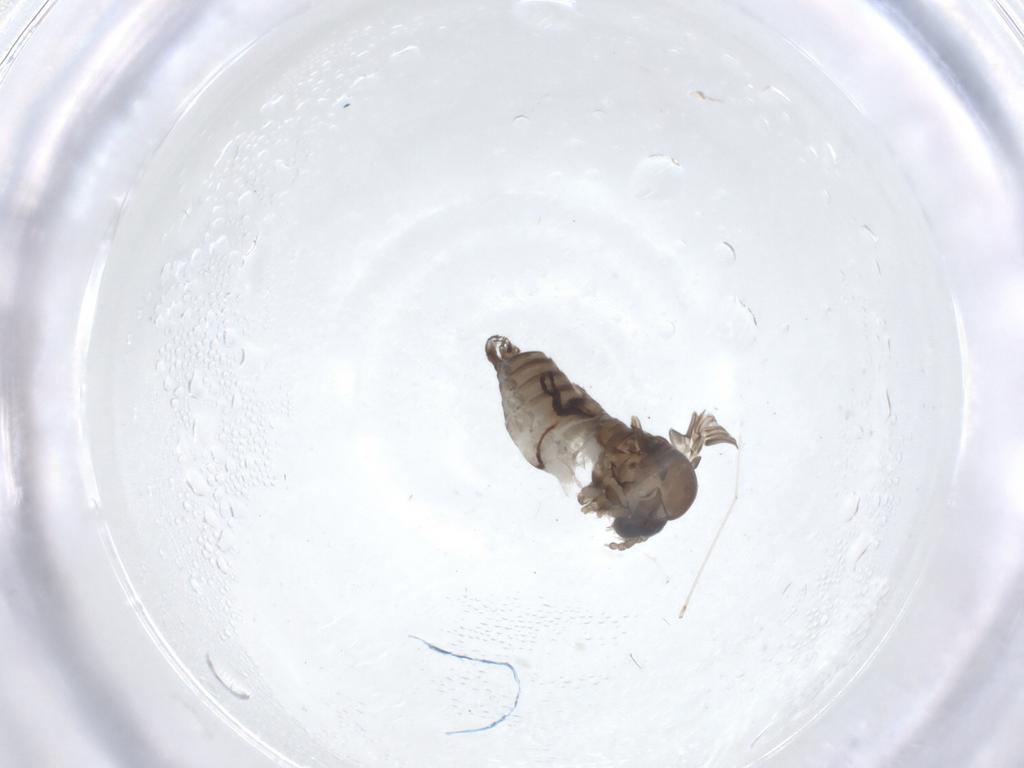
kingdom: Animalia
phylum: Arthropoda
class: Insecta
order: Diptera
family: Psychodidae
